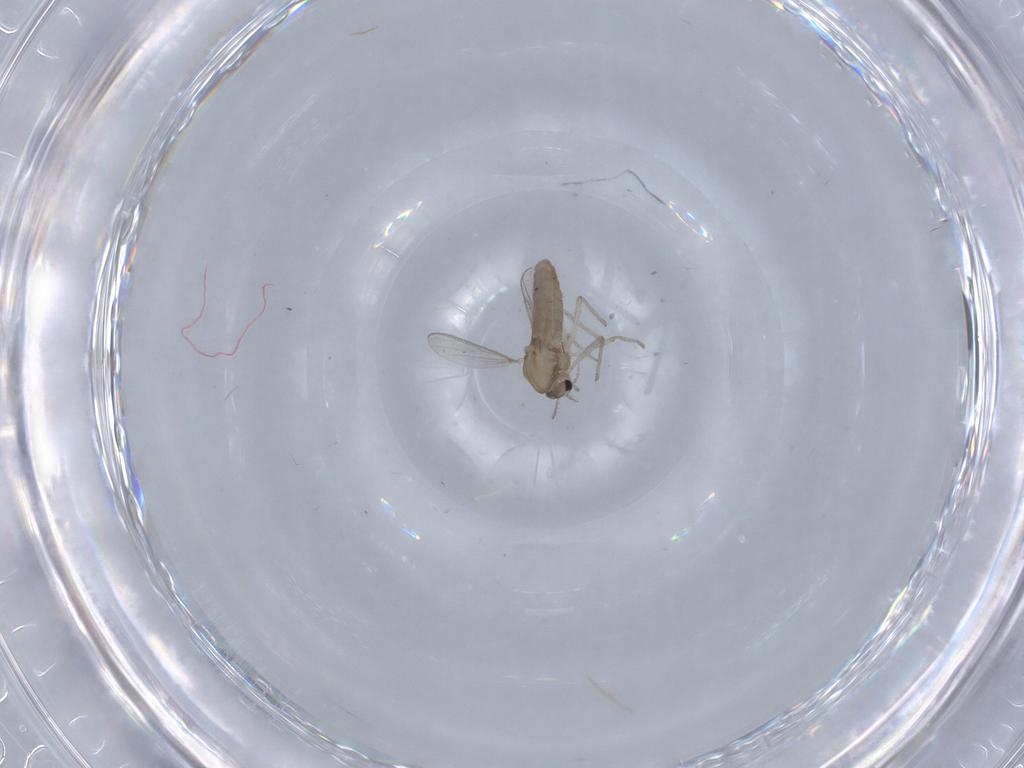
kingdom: Animalia
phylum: Arthropoda
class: Insecta
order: Diptera
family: Chironomidae
